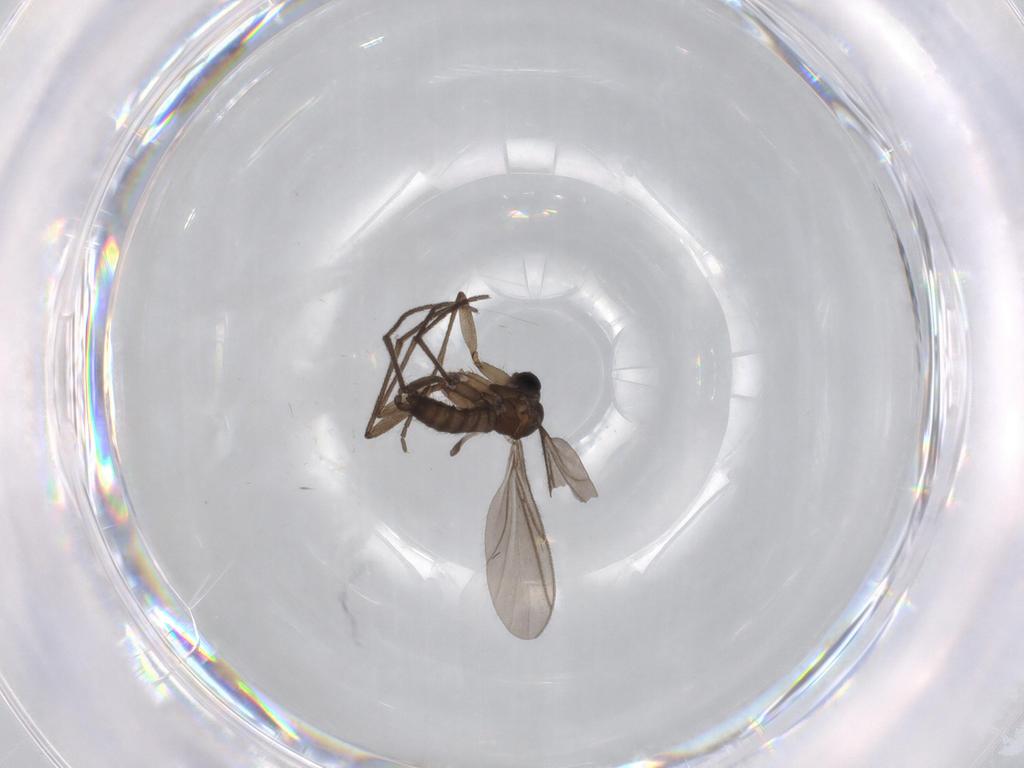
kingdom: Animalia
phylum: Arthropoda
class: Insecta
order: Diptera
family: Sciaridae
